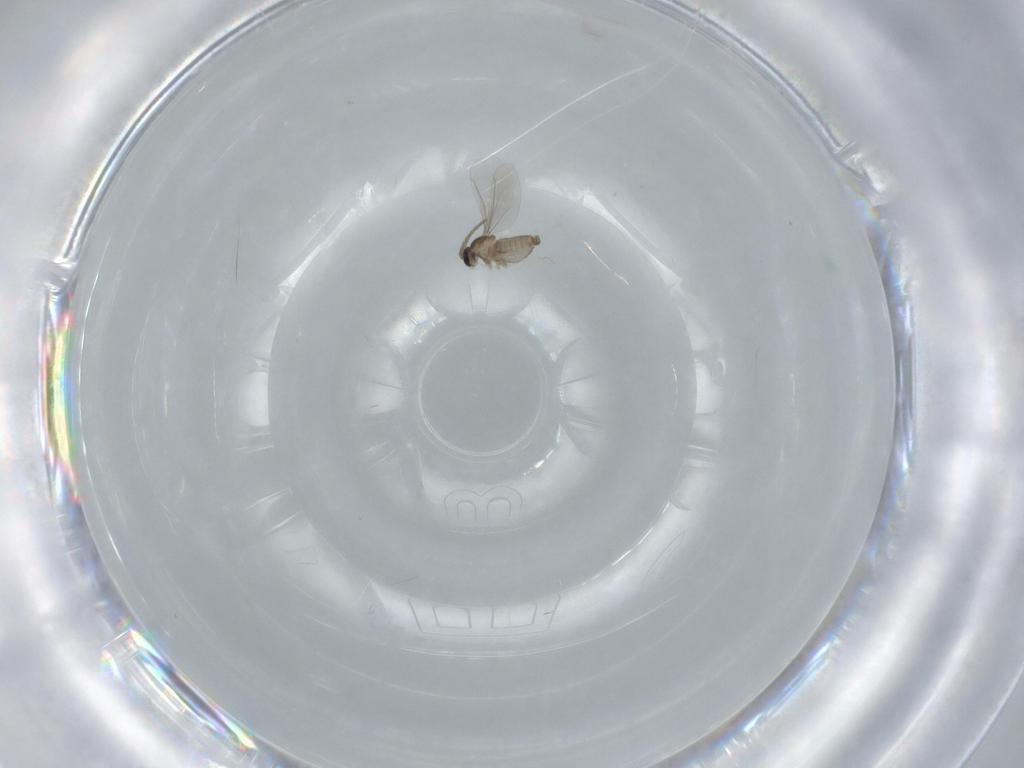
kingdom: Animalia
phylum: Arthropoda
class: Insecta
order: Diptera
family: Cecidomyiidae
